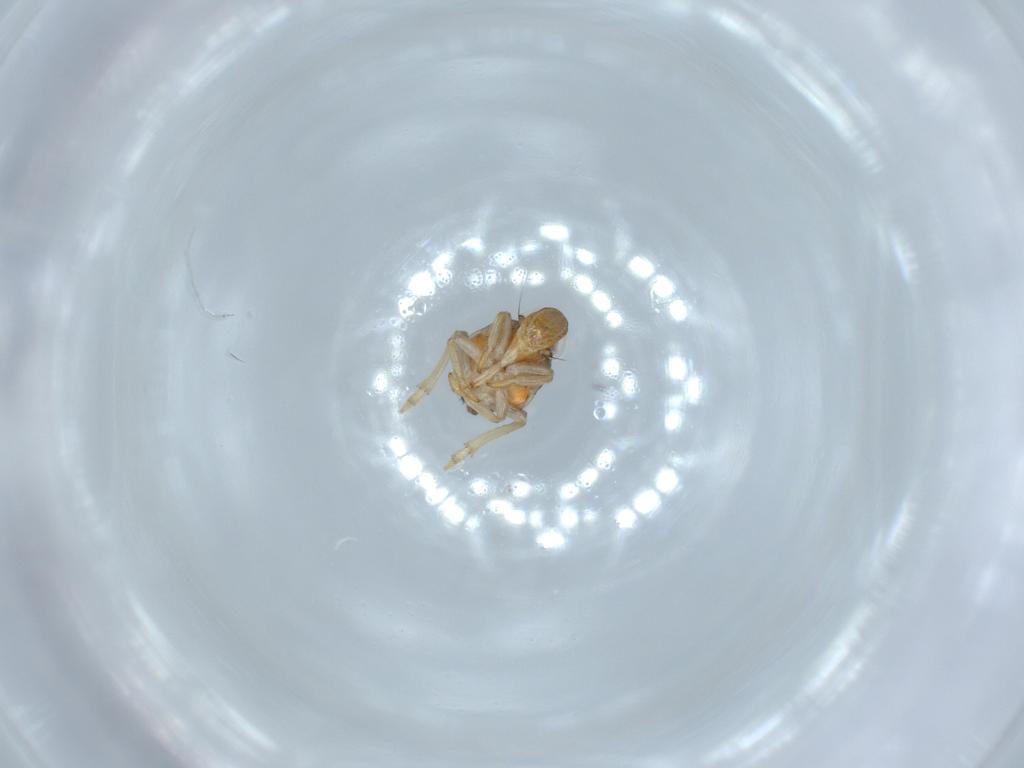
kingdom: Animalia
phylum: Arthropoda
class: Insecta
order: Hemiptera
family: Issidae
